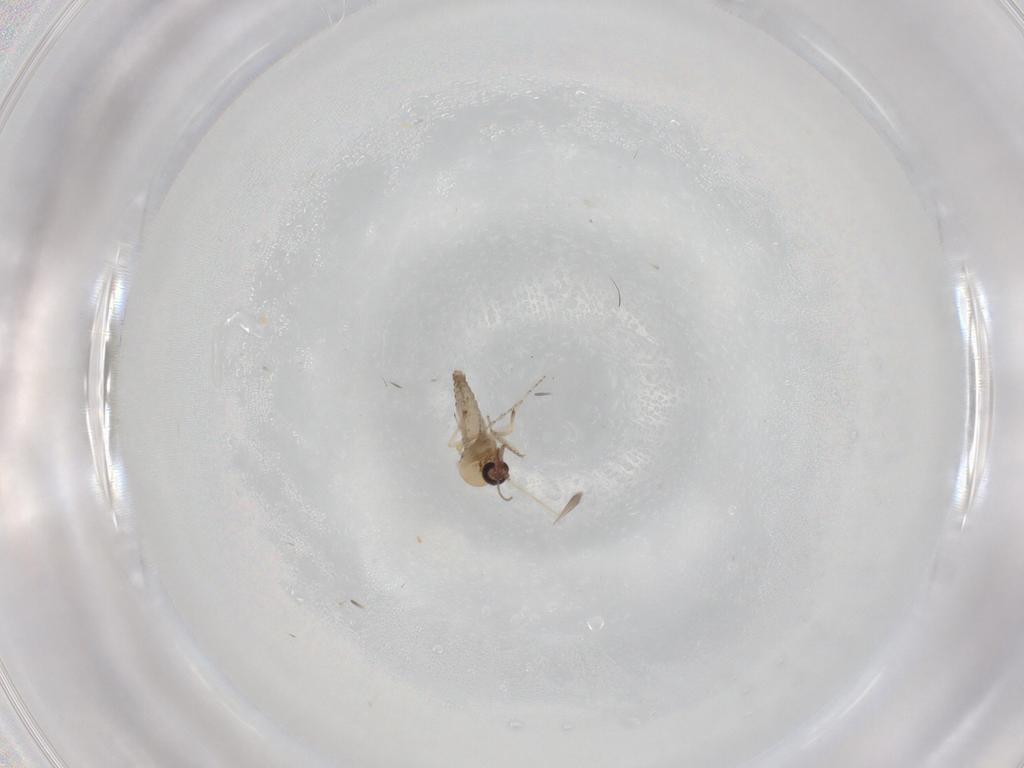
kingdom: Animalia
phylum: Arthropoda
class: Insecta
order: Diptera
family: Ceratopogonidae
